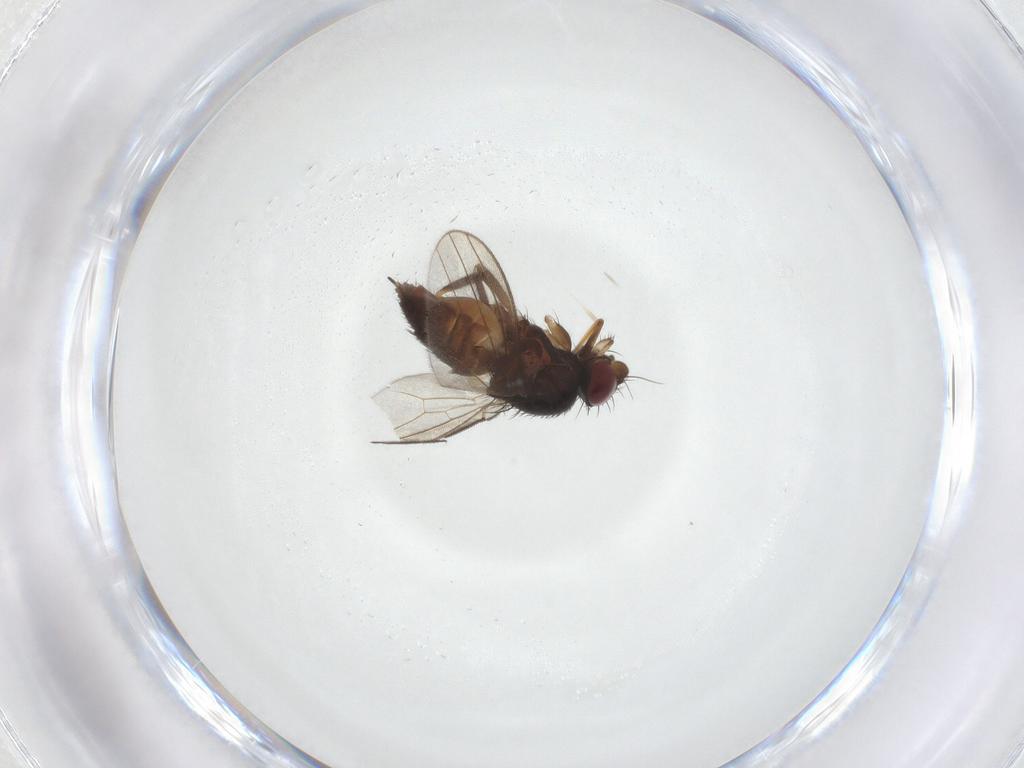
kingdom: Animalia
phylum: Arthropoda
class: Insecta
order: Diptera
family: Milichiidae
